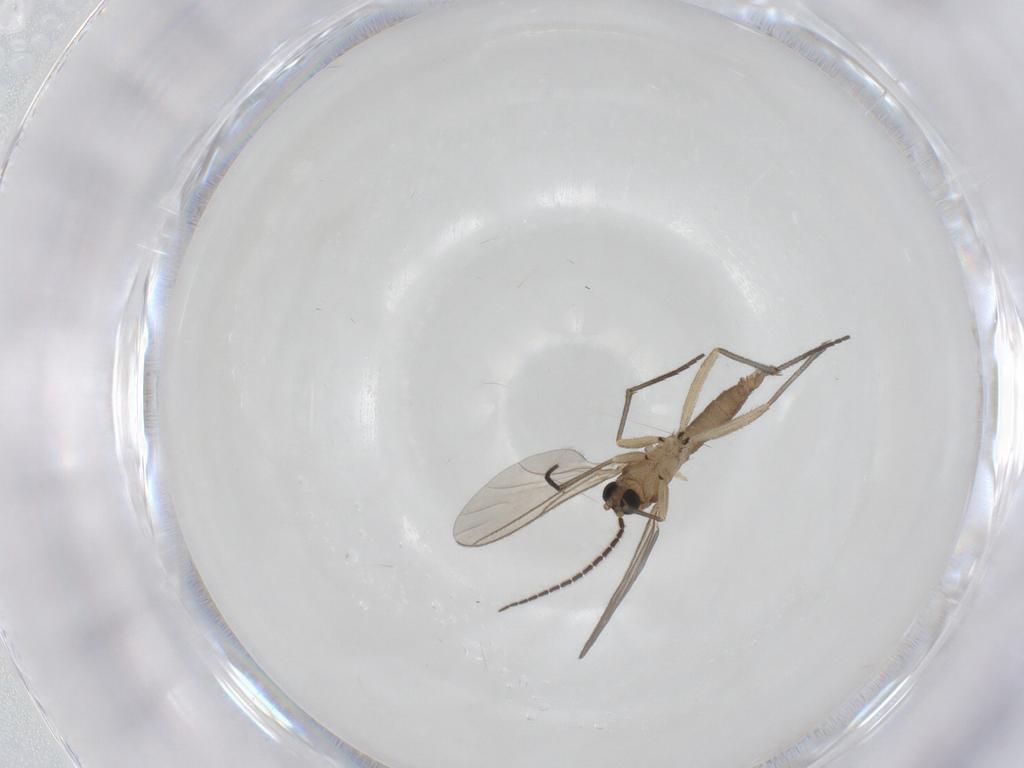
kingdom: Animalia
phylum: Arthropoda
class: Insecta
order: Diptera
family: Sciaridae
